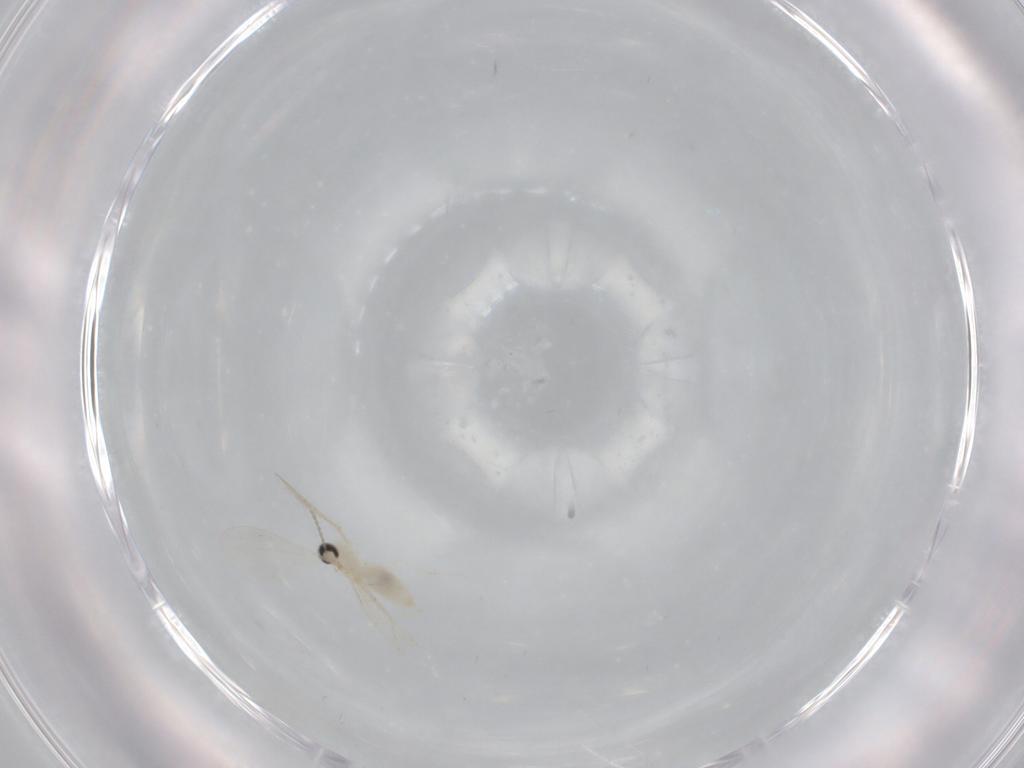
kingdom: Animalia
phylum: Arthropoda
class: Insecta
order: Diptera
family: Cecidomyiidae
